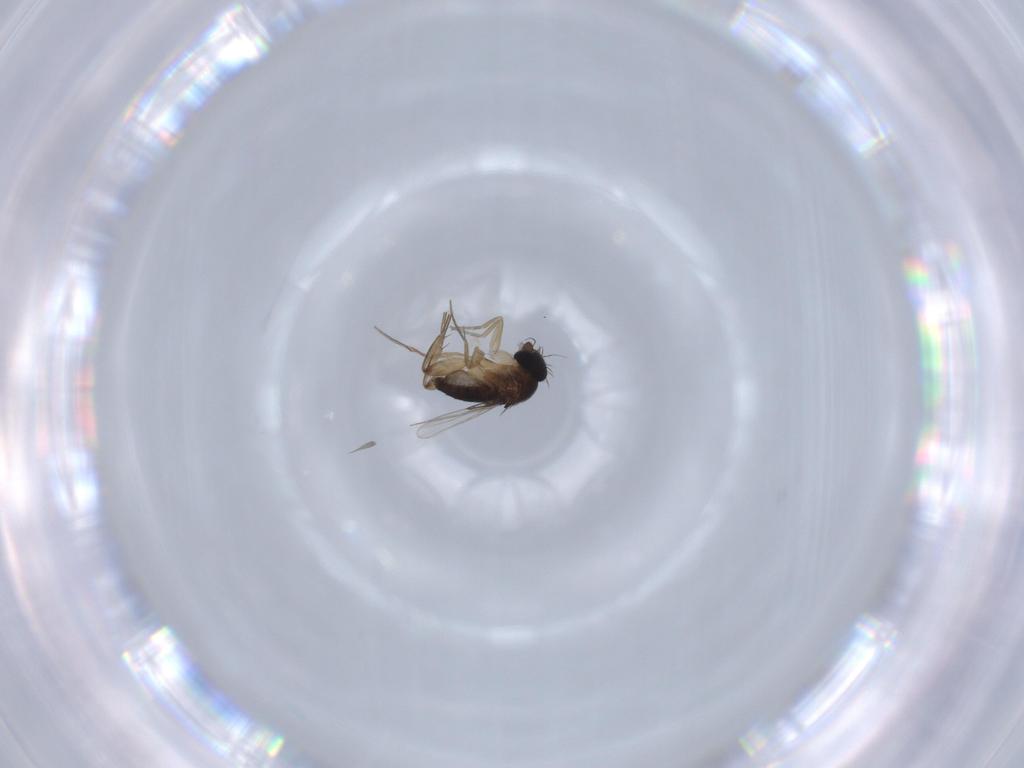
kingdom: Animalia
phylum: Arthropoda
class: Insecta
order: Diptera
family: Phoridae
